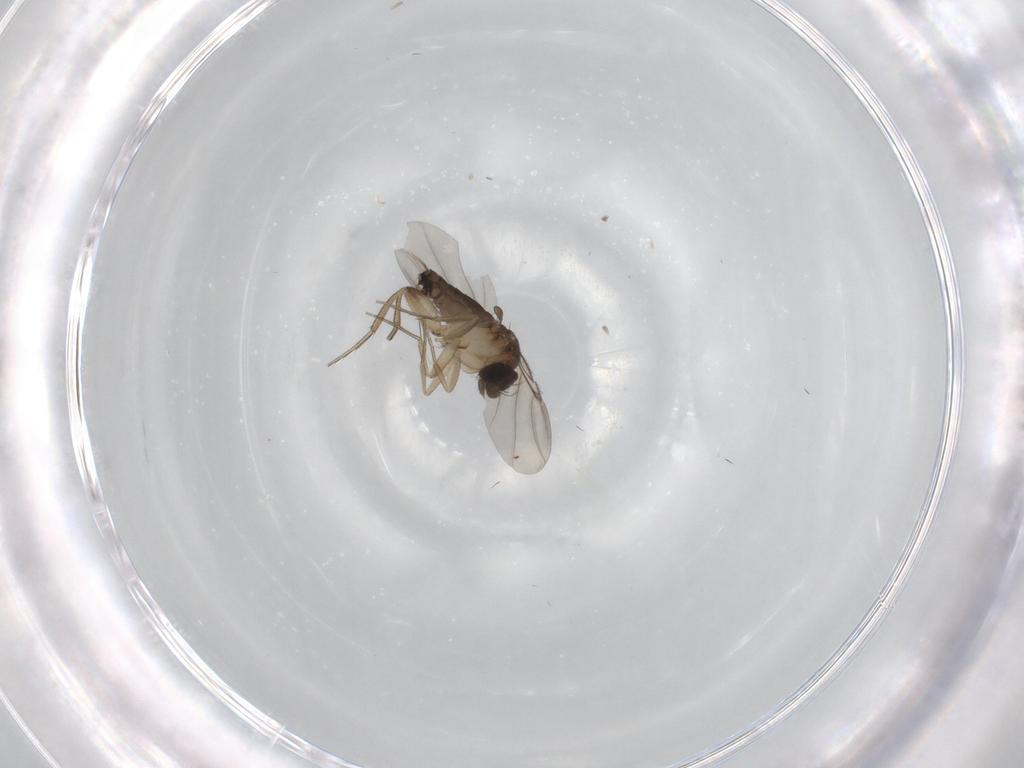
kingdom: Animalia
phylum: Arthropoda
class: Insecta
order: Diptera
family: Phoridae
